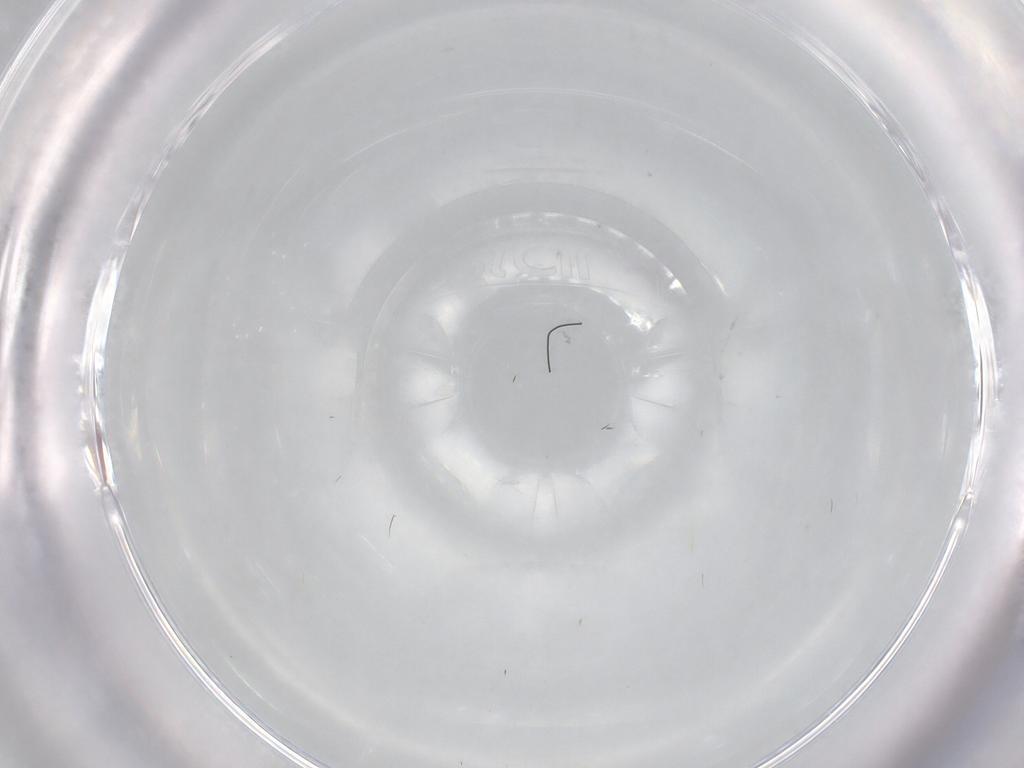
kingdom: Animalia
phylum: Arthropoda
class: Insecta
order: Hymenoptera
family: Mymaridae
